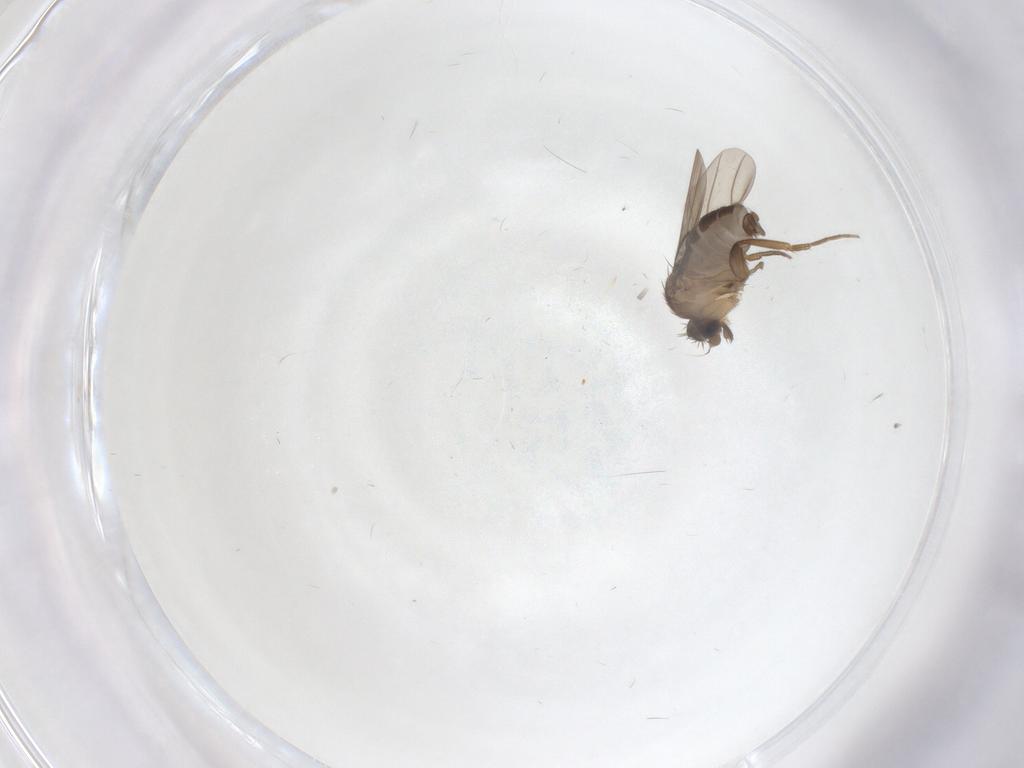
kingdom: Animalia
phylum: Arthropoda
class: Insecta
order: Diptera
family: Phoridae
